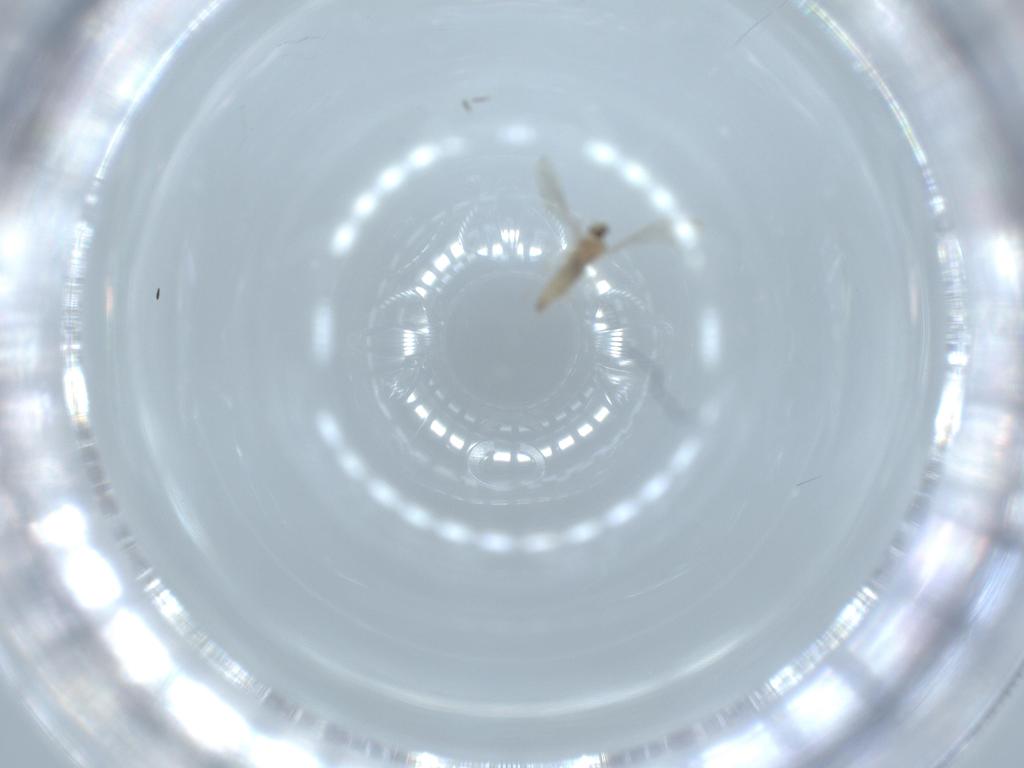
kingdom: Animalia
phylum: Arthropoda
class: Insecta
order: Diptera
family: Cecidomyiidae
